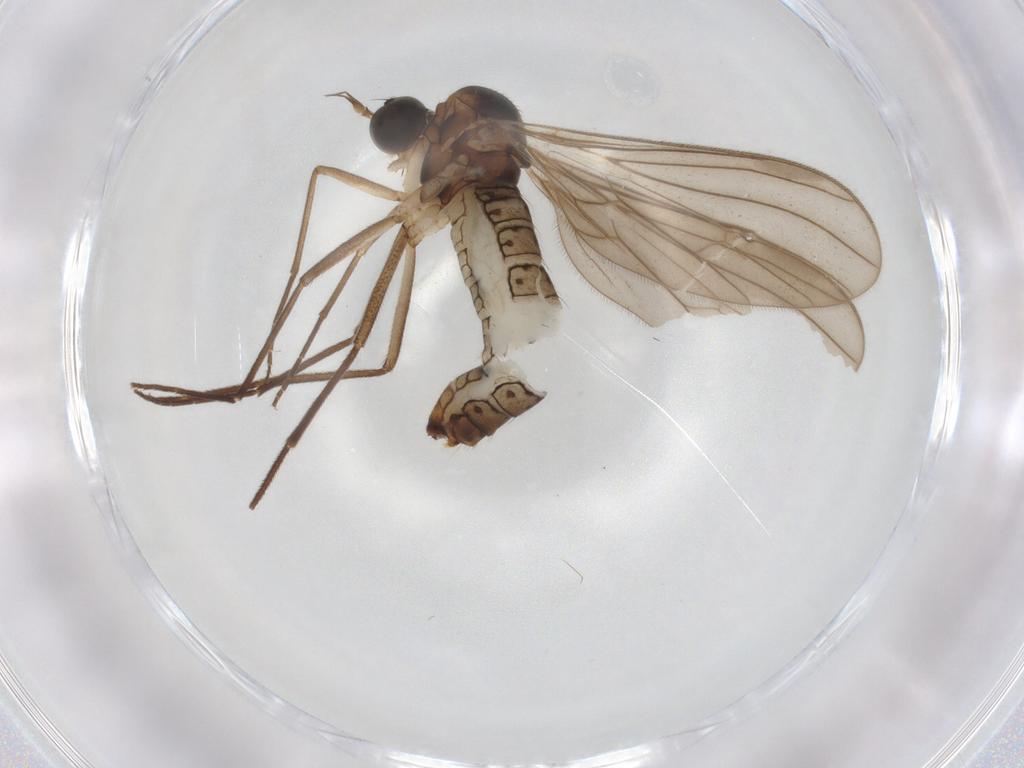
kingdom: Animalia
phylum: Arthropoda
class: Insecta
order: Diptera
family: Empididae
